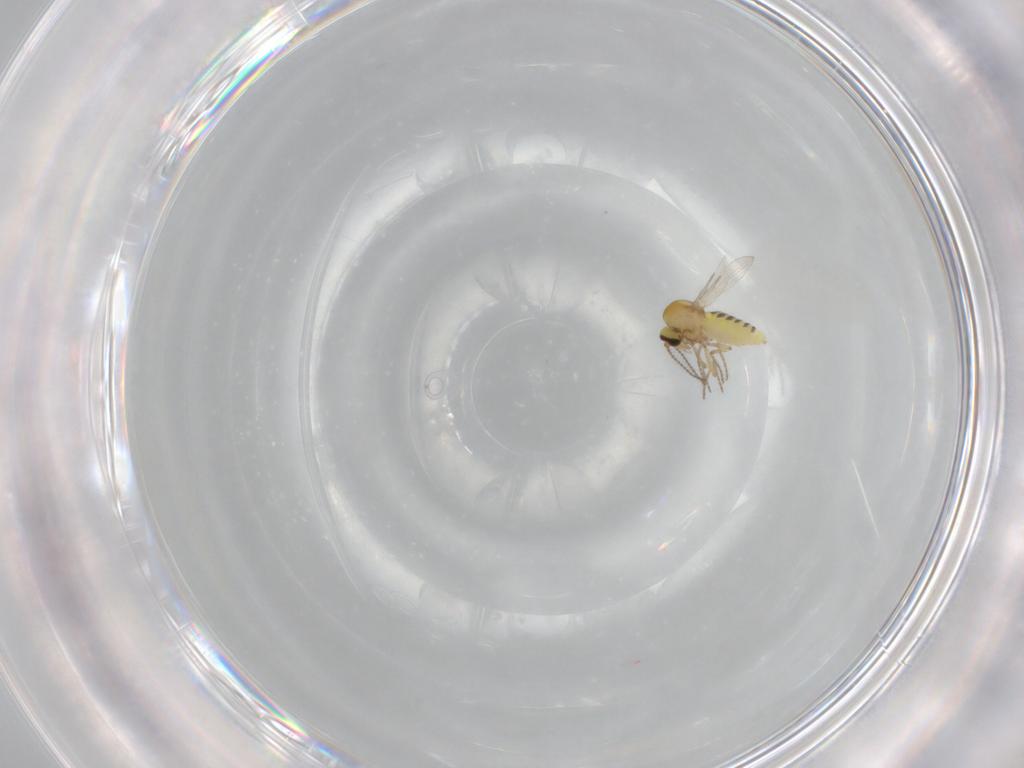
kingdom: Animalia
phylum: Arthropoda
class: Insecta
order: Diptera
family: Ceratopogonidae
